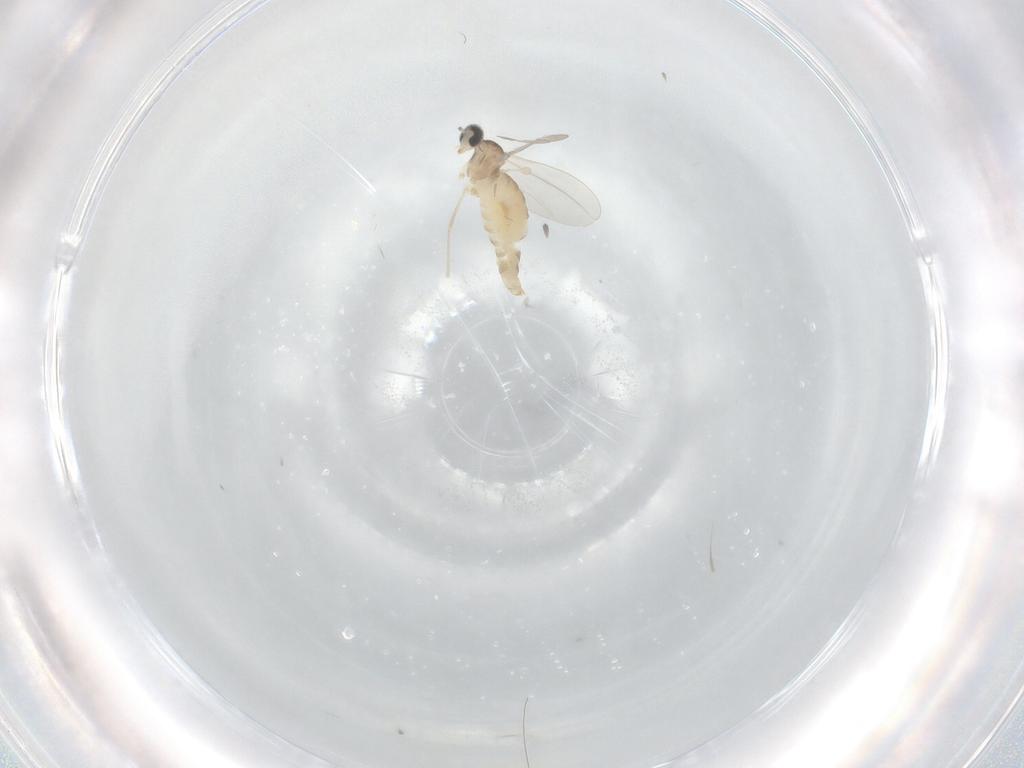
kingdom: Animalia
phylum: Arthropoda
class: Insecta
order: Diptera
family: Cecidomyiidae
